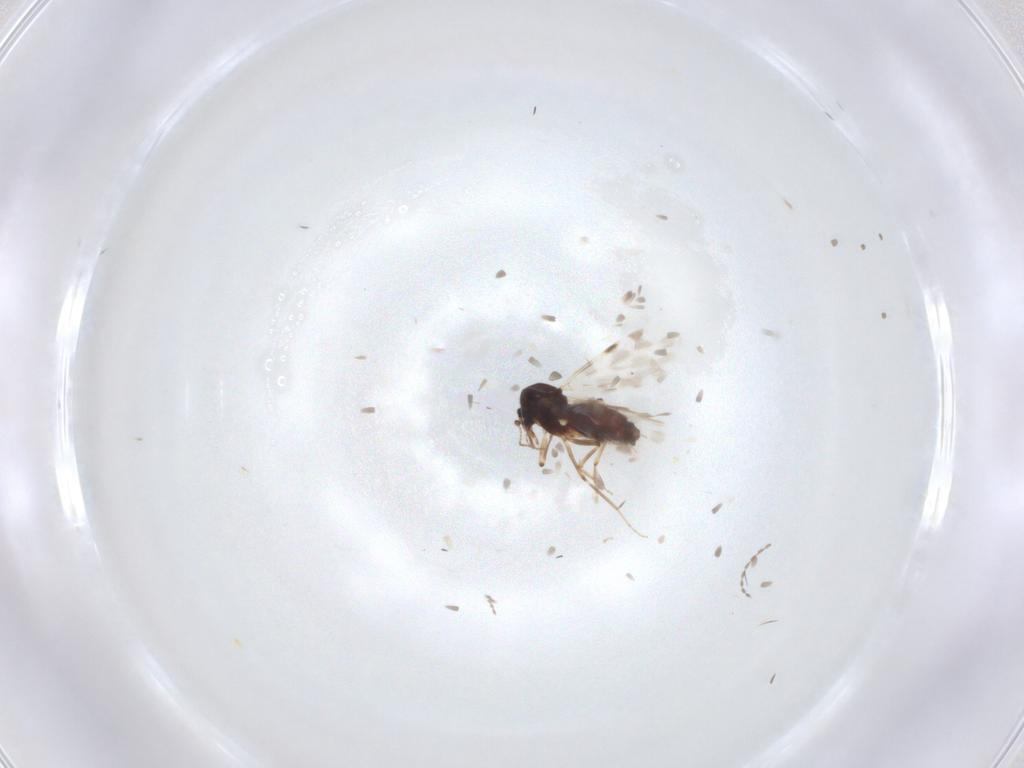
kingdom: Animalia
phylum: Arthropoda
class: Insecta
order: Diptera
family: Cecidomyiidae
